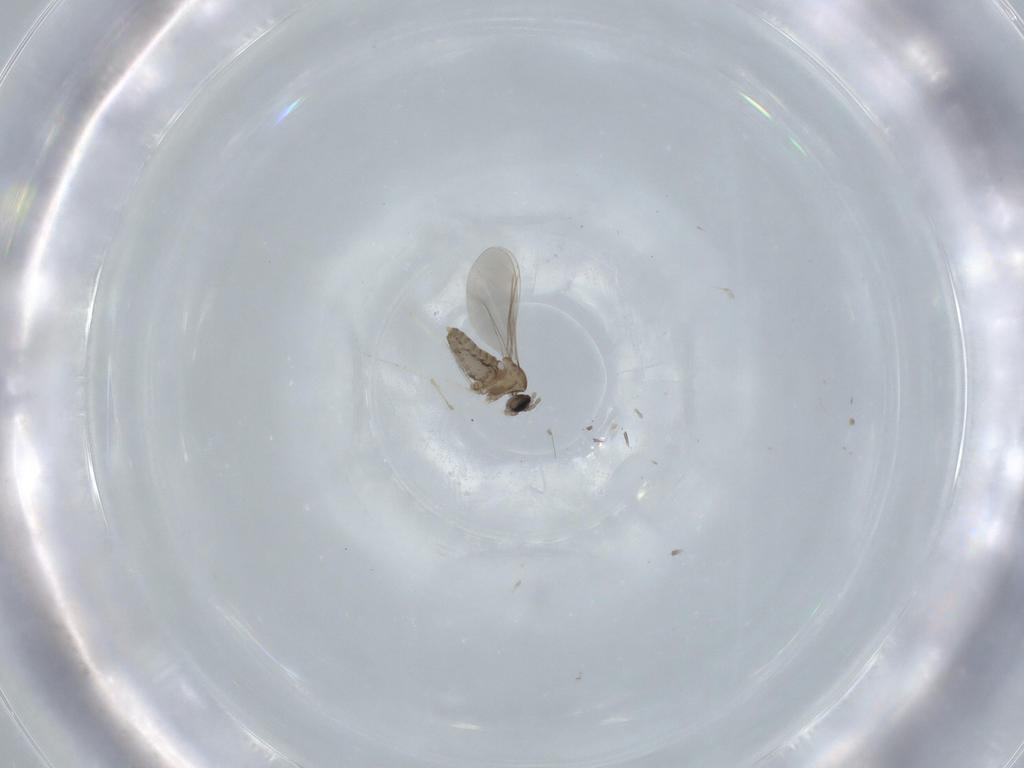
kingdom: Animalia
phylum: Arthropoda
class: Insecta
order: Diptera
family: Cecidomyiidae
